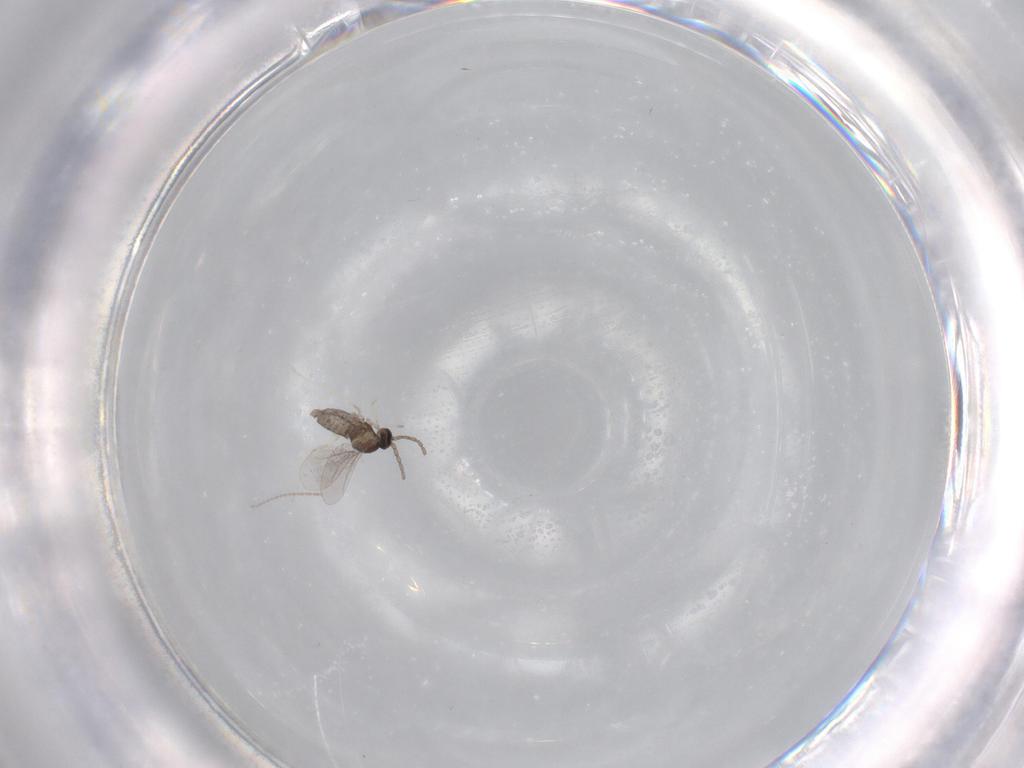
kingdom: Animalia
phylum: Arthropoda
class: Insecta
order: Diptera
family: Cecidomyiidae
